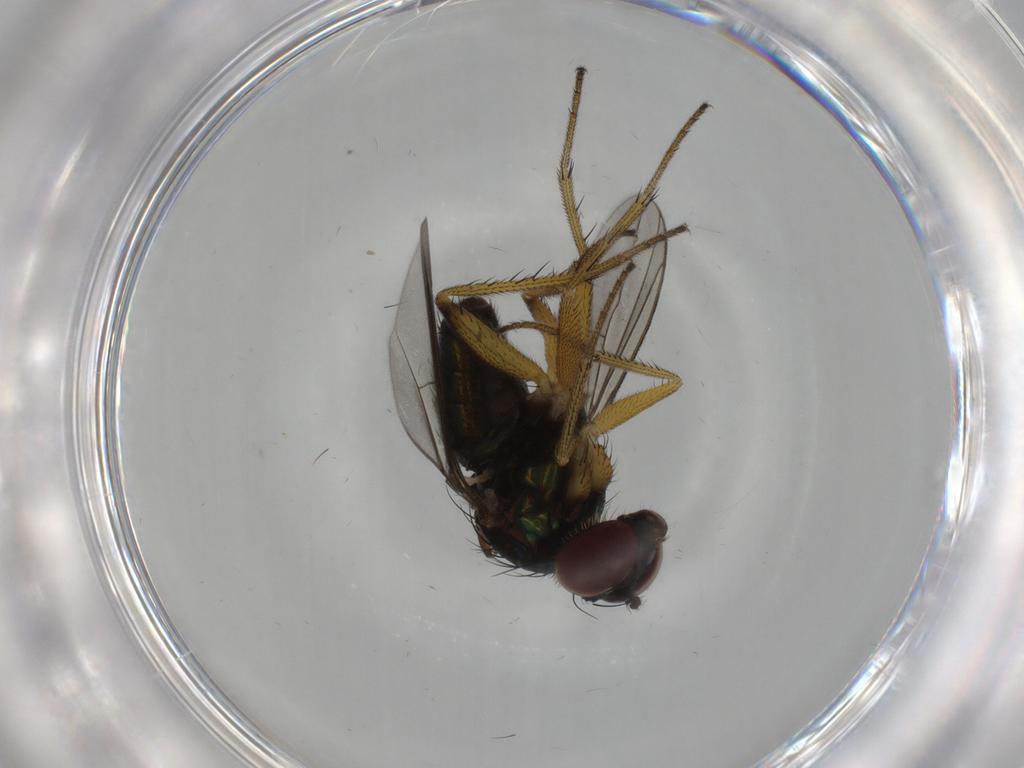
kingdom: Animalia
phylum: Arthropoda
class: Insecta
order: Diptera
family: Dolichopodidae
